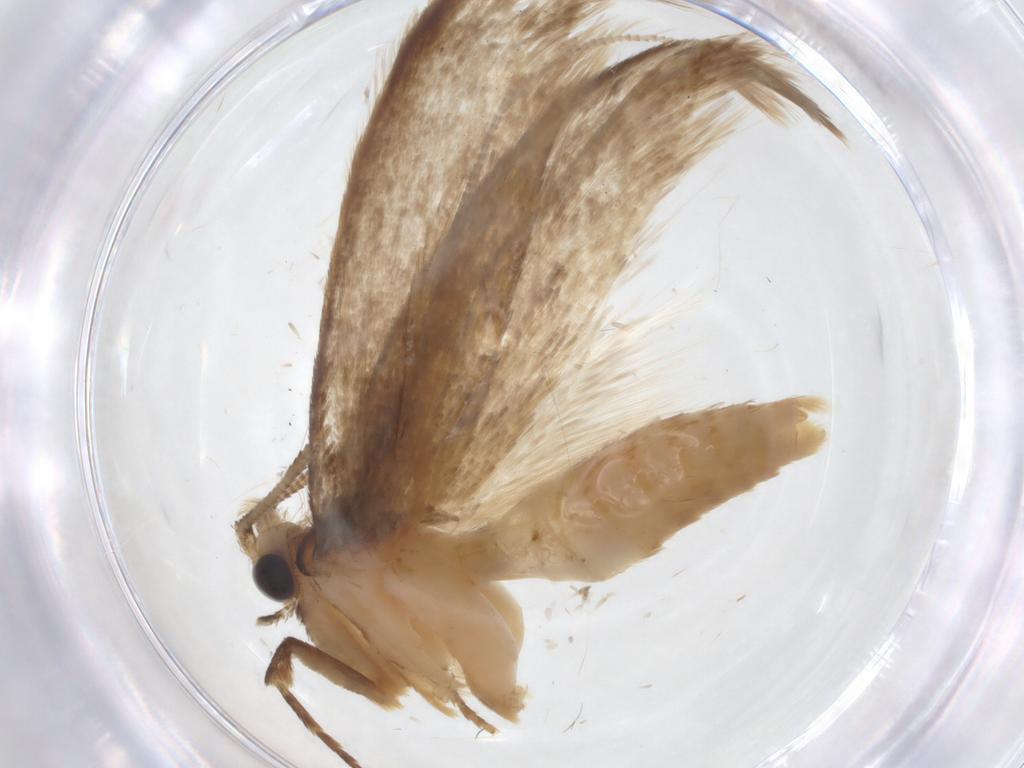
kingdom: Animalia
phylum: Arthropoda
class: Insecta
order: Lepidoptera
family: Tineidae
